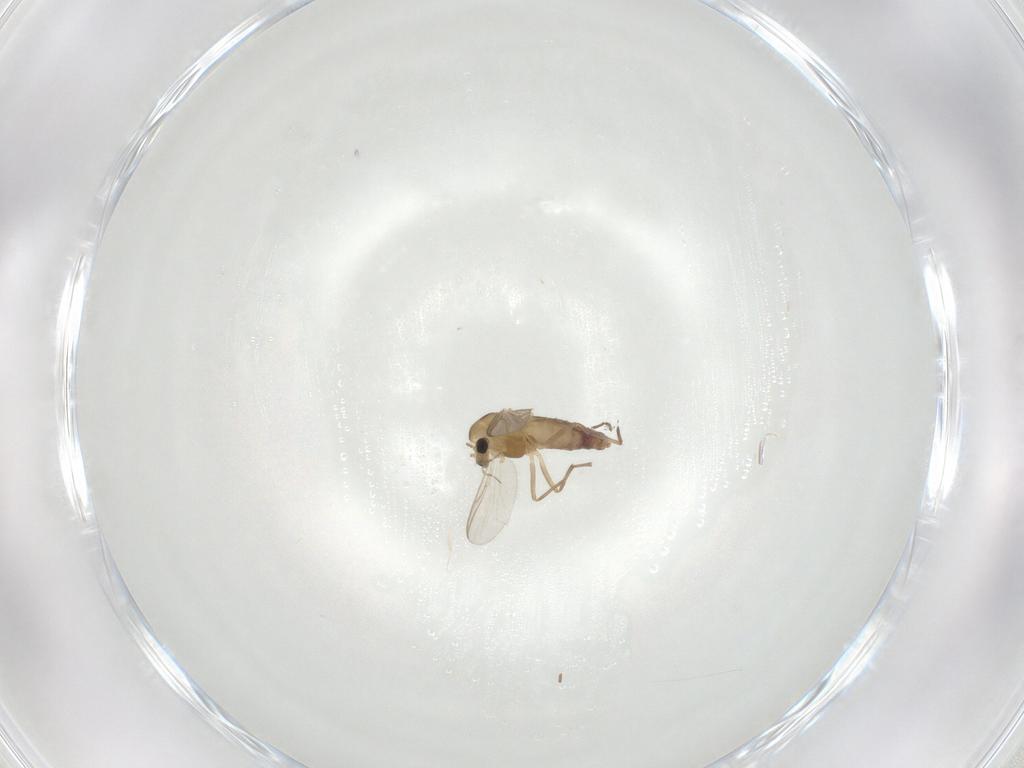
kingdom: Animalia
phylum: Arthropoda
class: Insecta
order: Diptera
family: Chironomidae
